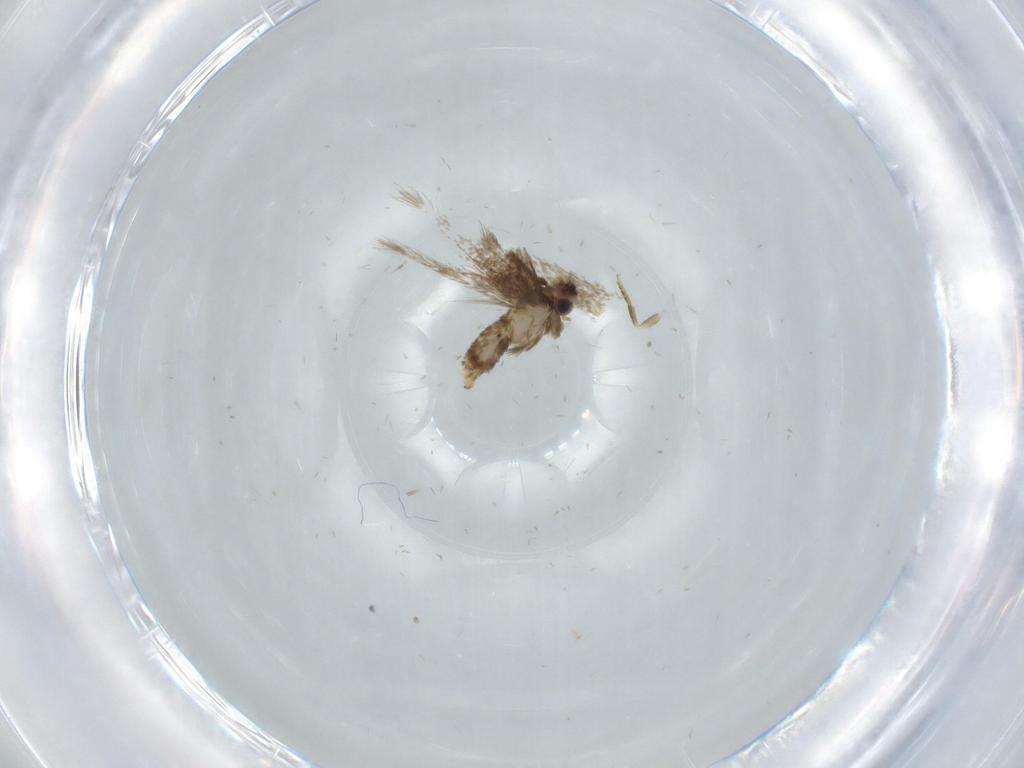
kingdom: Animalia
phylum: Arthropoda
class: Insecta
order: Lepidoptera
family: Nepticulidae
